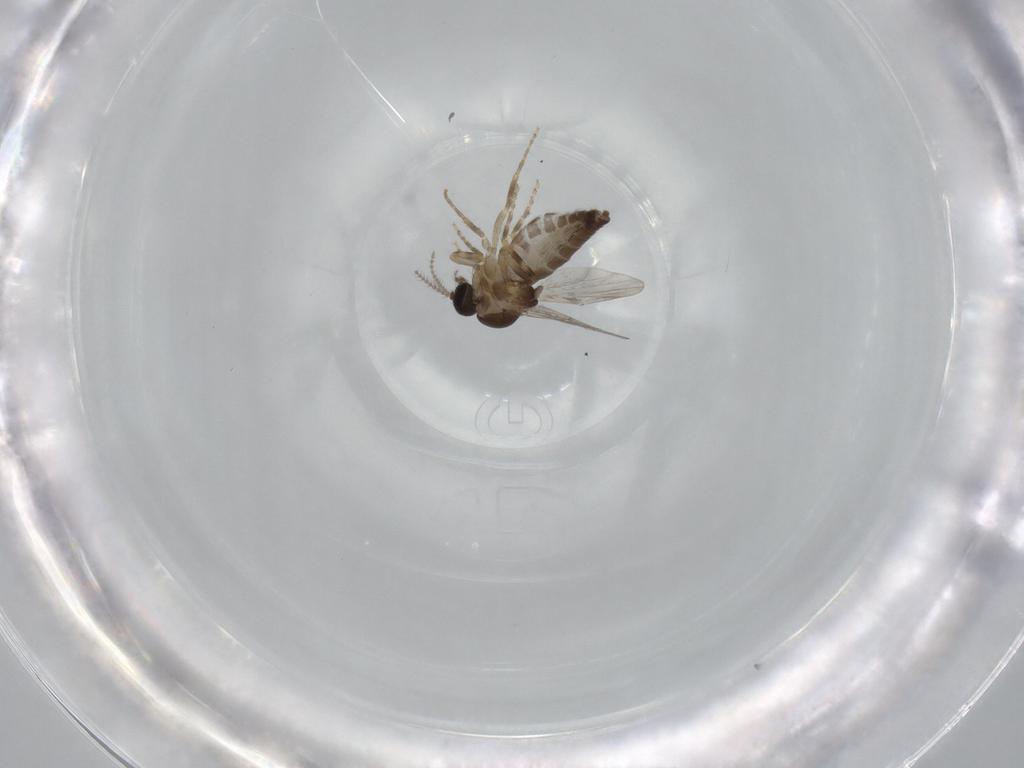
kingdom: Animalia
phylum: Arthropoda
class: Insecta
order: Diptera
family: Ceratopogonidae
